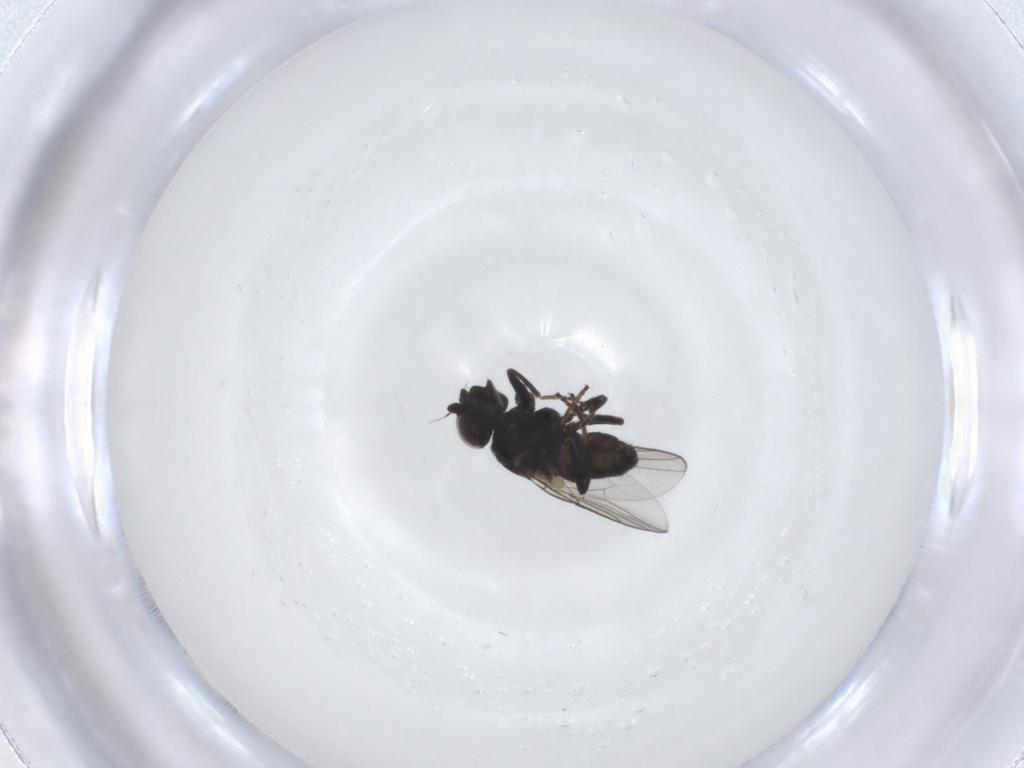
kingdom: Animalia
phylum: Arthropoda
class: Insecta
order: Diptera
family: Chloropidae
